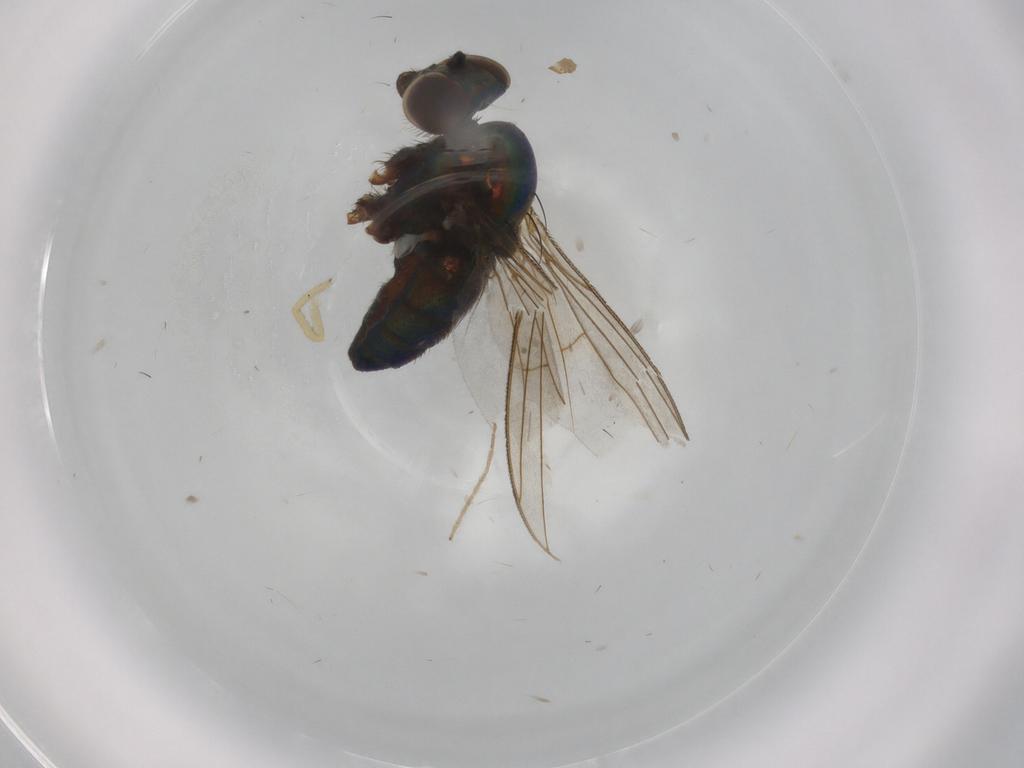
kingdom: Animalia
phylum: Arthropoda
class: Insecta
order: Diptera
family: Dolichopodidae
